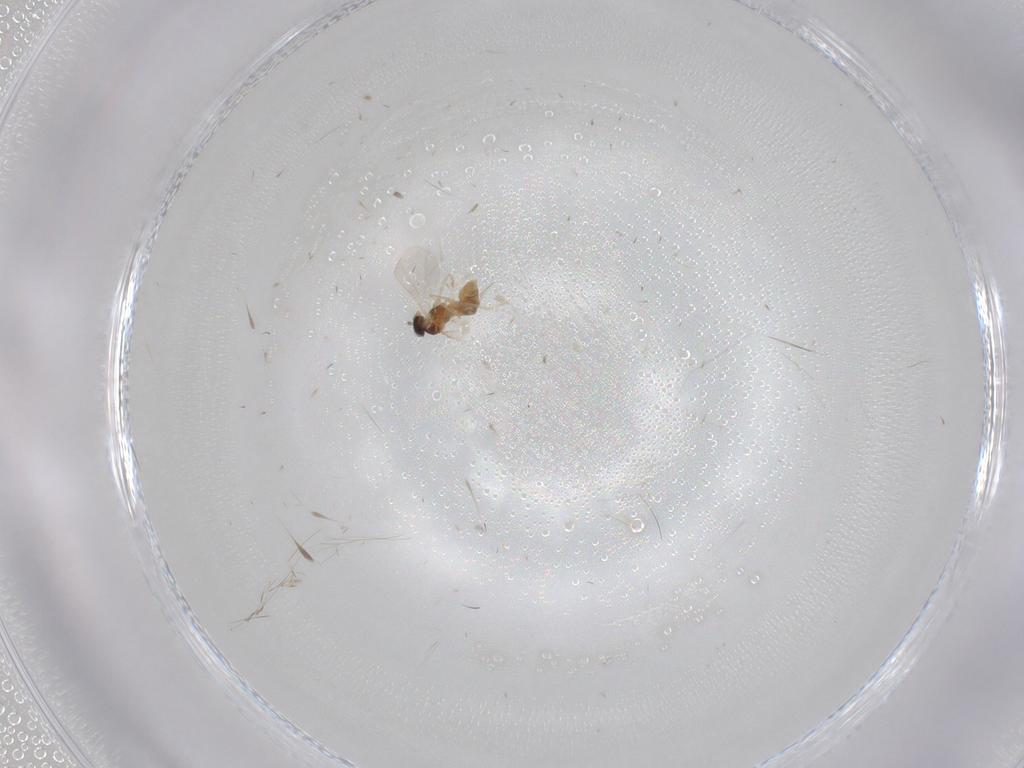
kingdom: Animalia
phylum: Arthropoda
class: Insecta
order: Diptera
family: Cecidomyiidae
